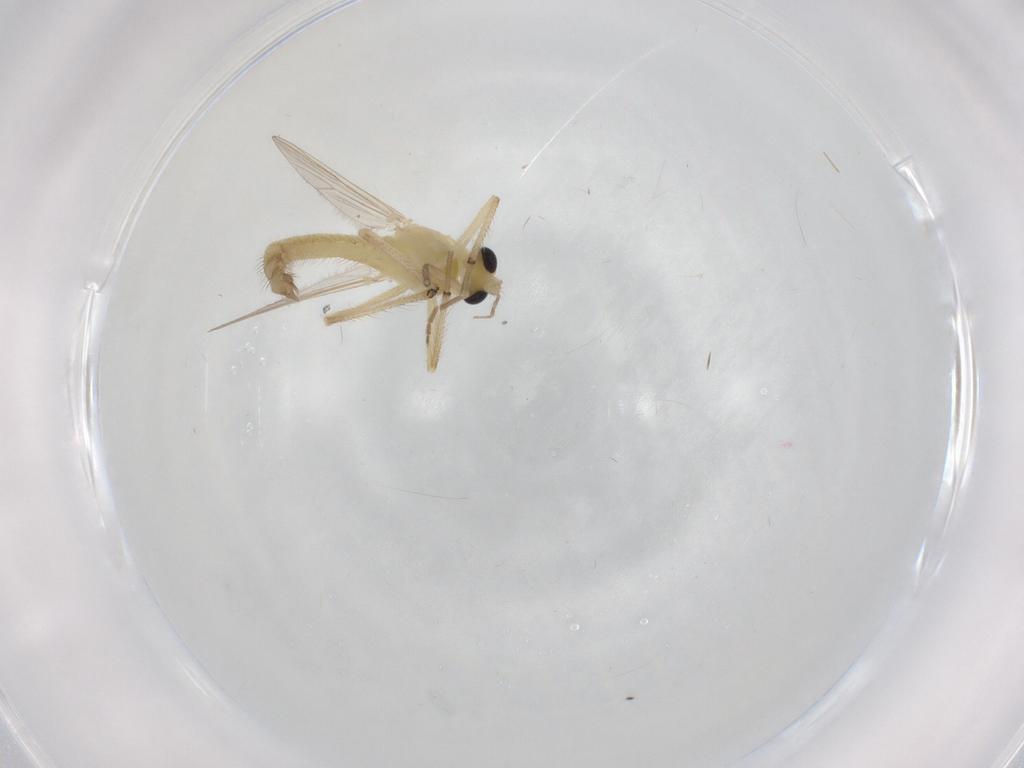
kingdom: Animalia
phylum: Arthropoda
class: Insecta
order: Diptera
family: Chironomidae
